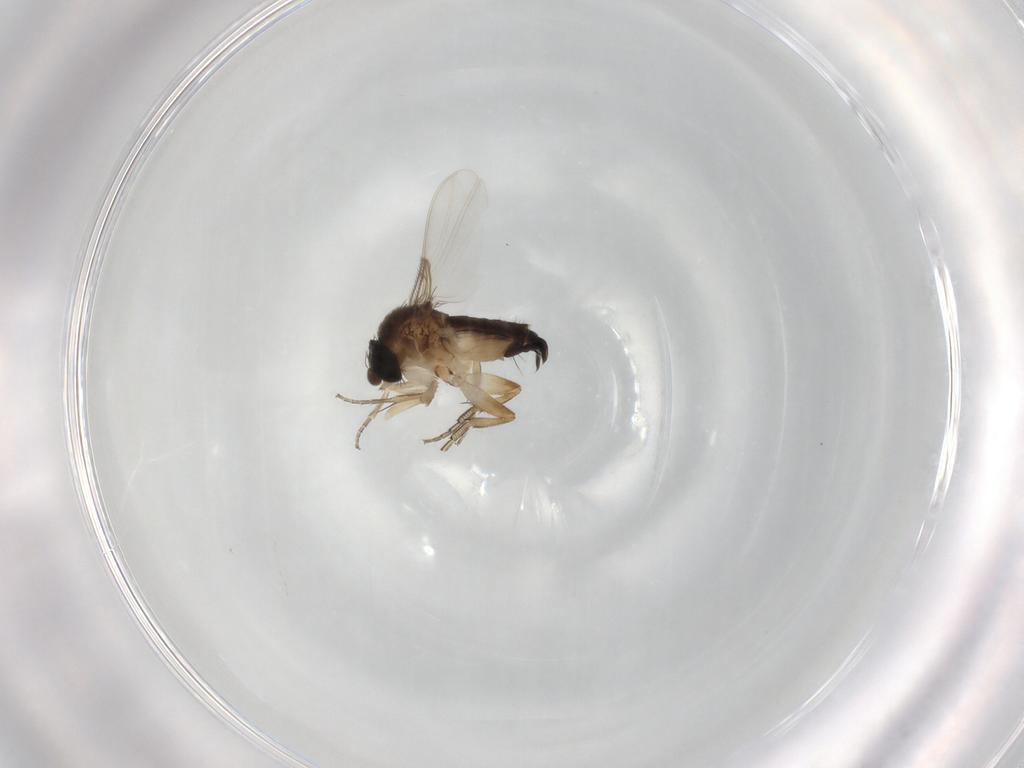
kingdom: Animalia
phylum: Arthropoda
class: Insecta
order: Diptera
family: Phoridae
